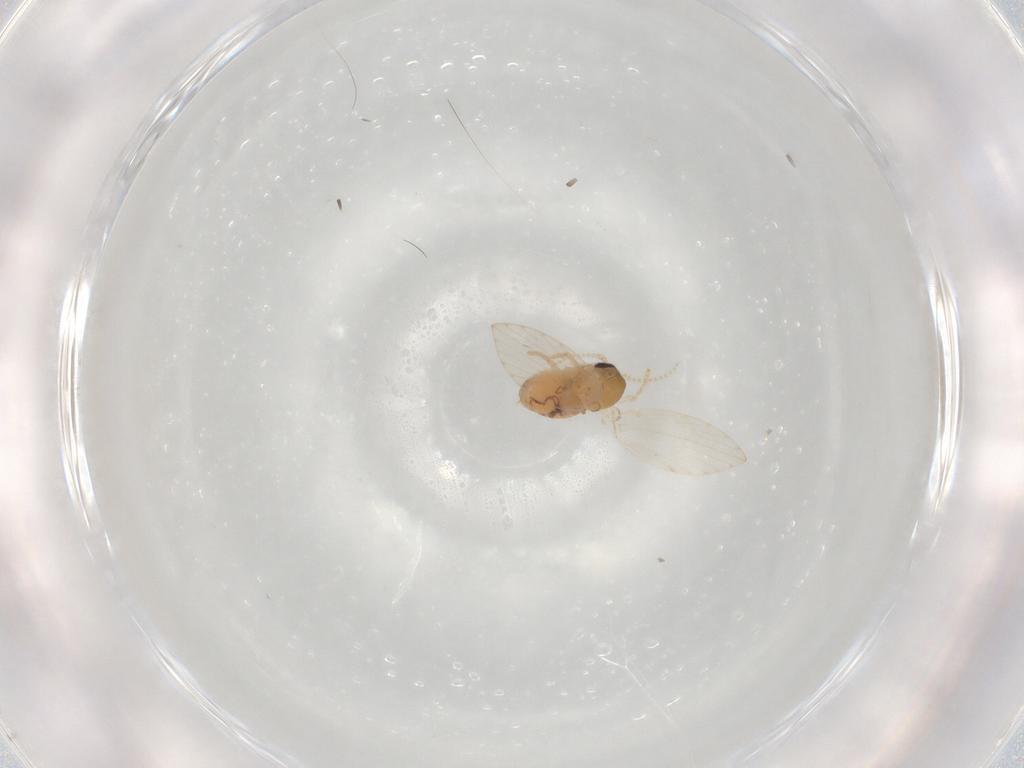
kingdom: Animalia
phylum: Arthropoda
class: Insecta
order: Diptera
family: Psychodidae
